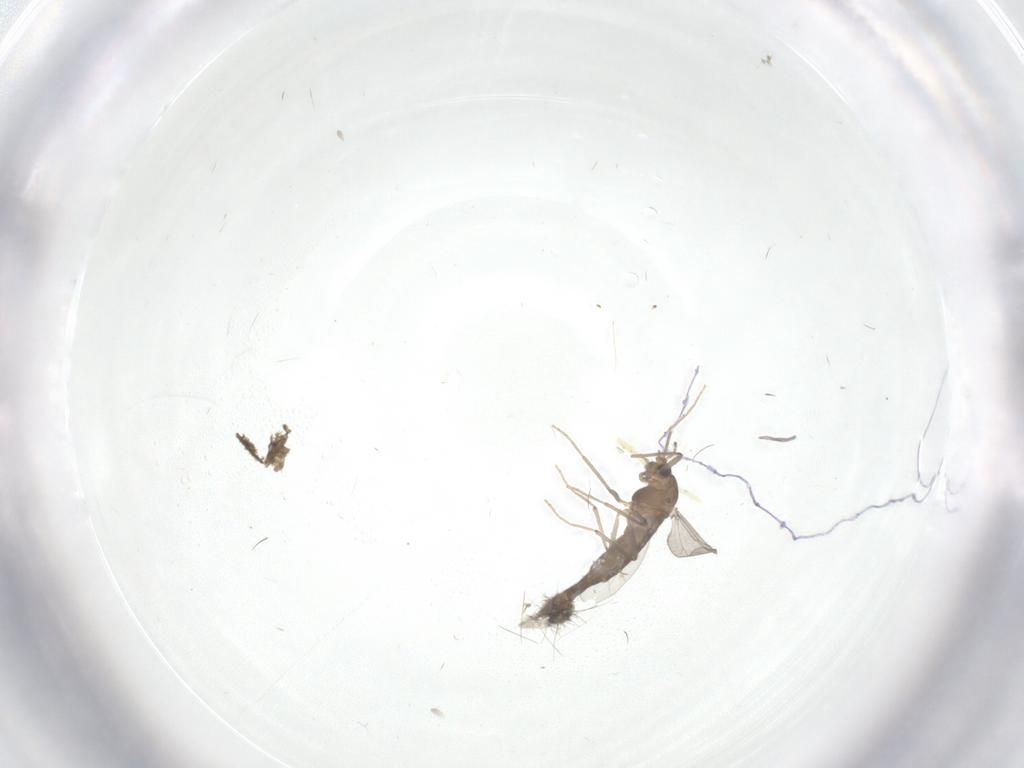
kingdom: Animalia
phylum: Arthropoda
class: Insecta
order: Diptera
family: Chironomidae
